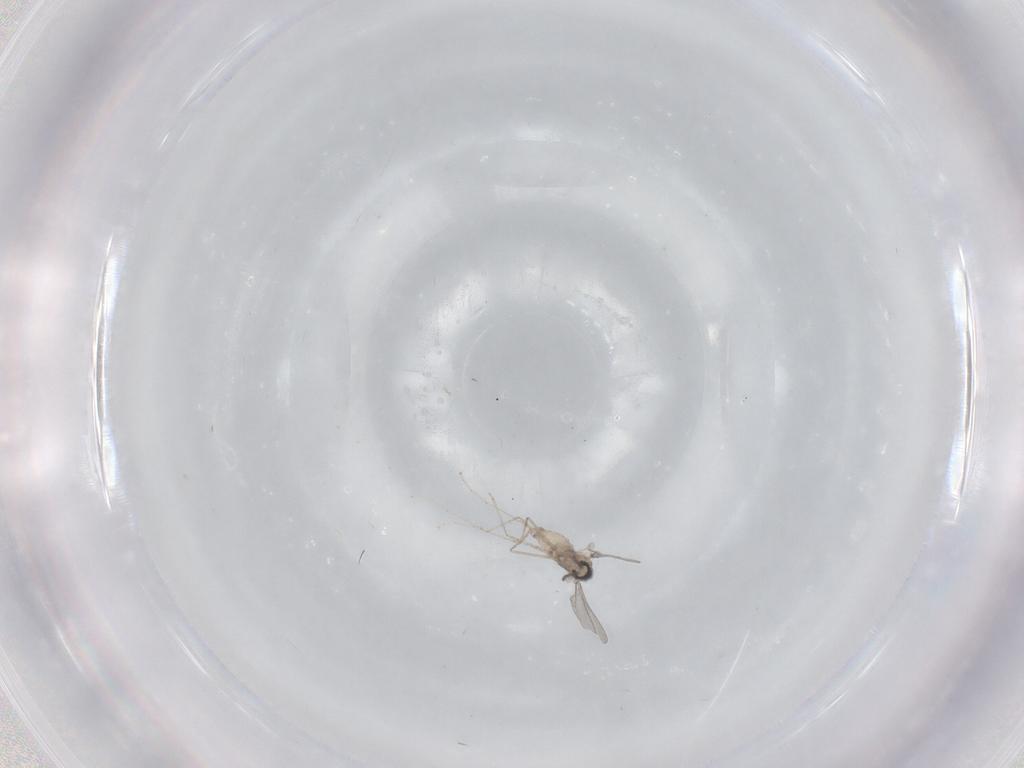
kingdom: Animalia
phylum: Arthropoda
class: Insecta
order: Diptera
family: Cecidomyiidae
